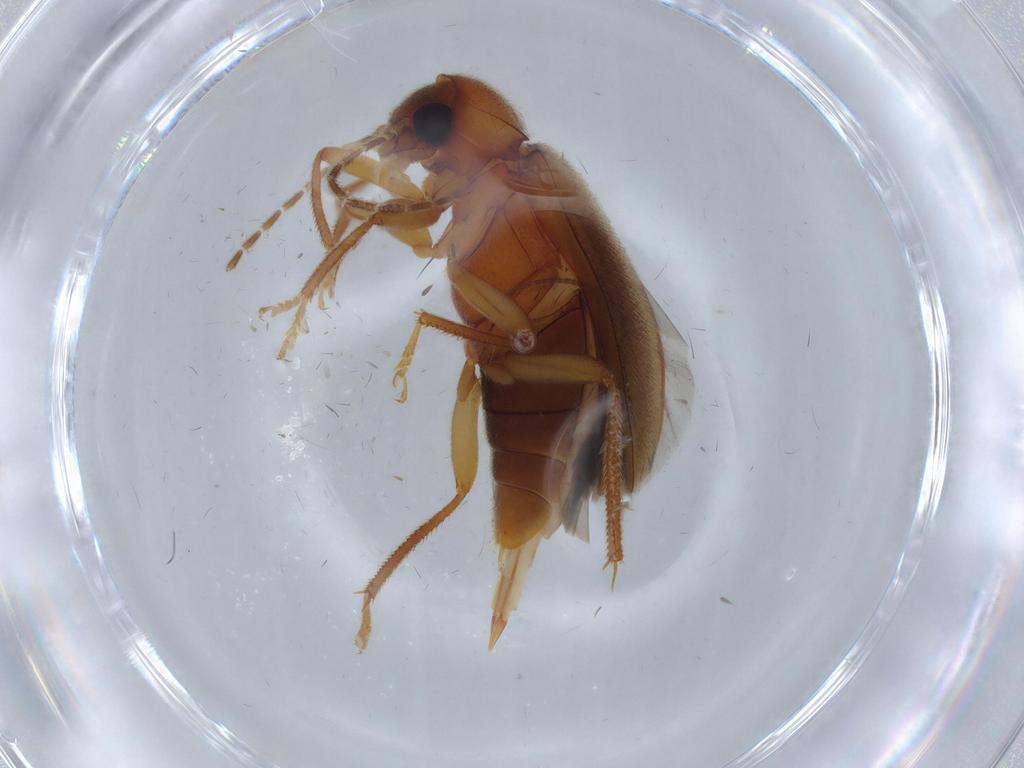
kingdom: Animalia
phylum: Arthropoda
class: Insecta
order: Coleoptera
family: Ptilodactylidae
